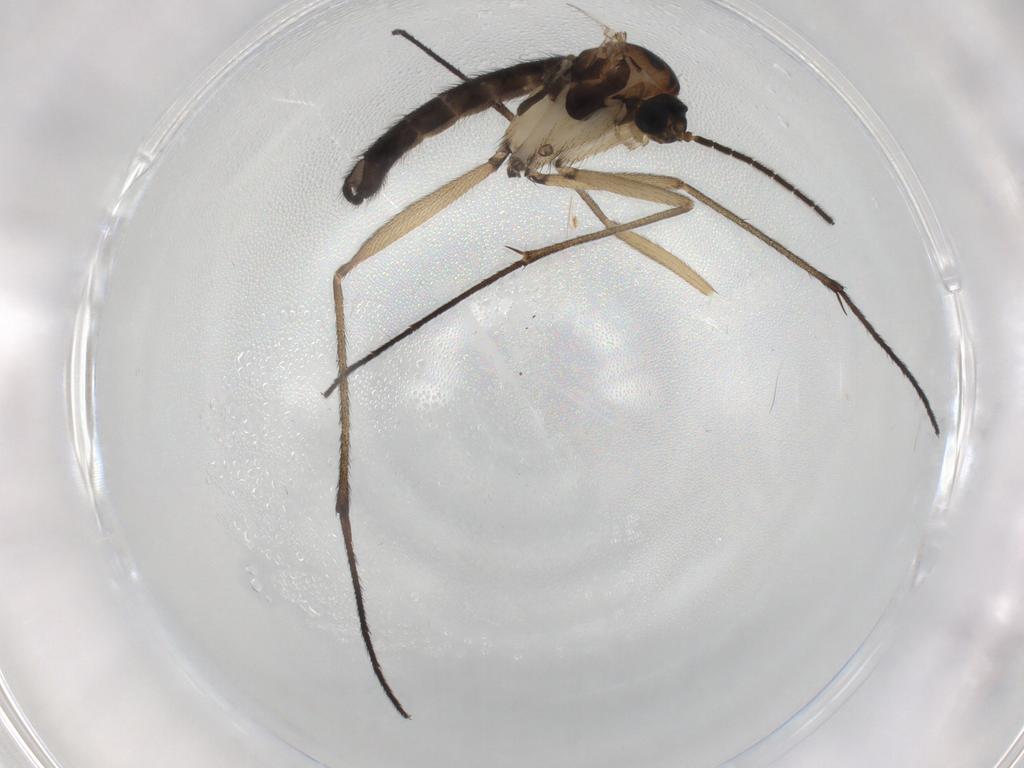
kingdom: Animalia
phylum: Arthropoda
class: Insecta
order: Diptera
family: Sciaridae
